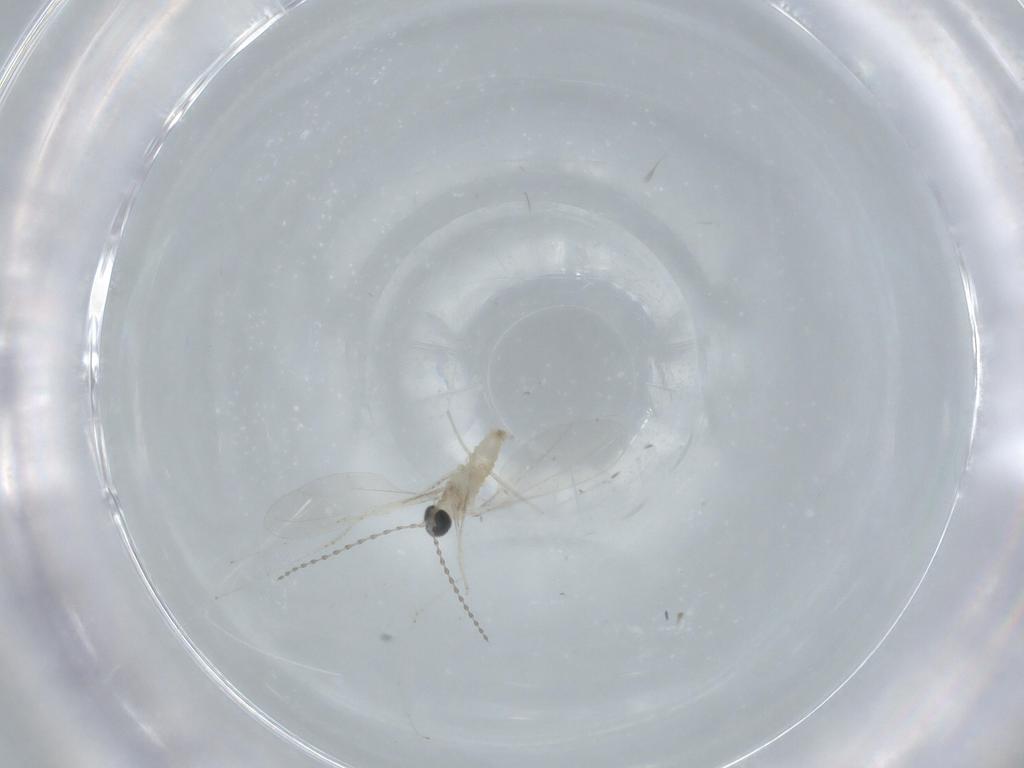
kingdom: Animalia
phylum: Arthropoda
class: Insecta
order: Diptera
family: Cecidomyiidae
